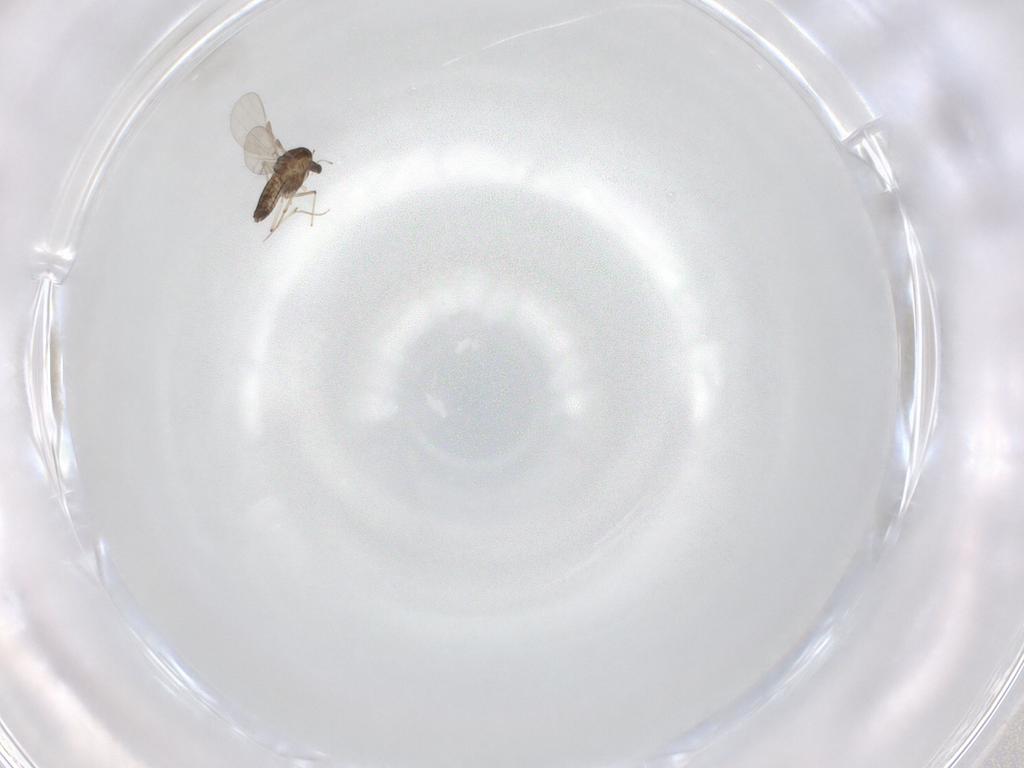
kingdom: Animalia
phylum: Arthropoda
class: Insecta
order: Diptera
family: Chironomidae
